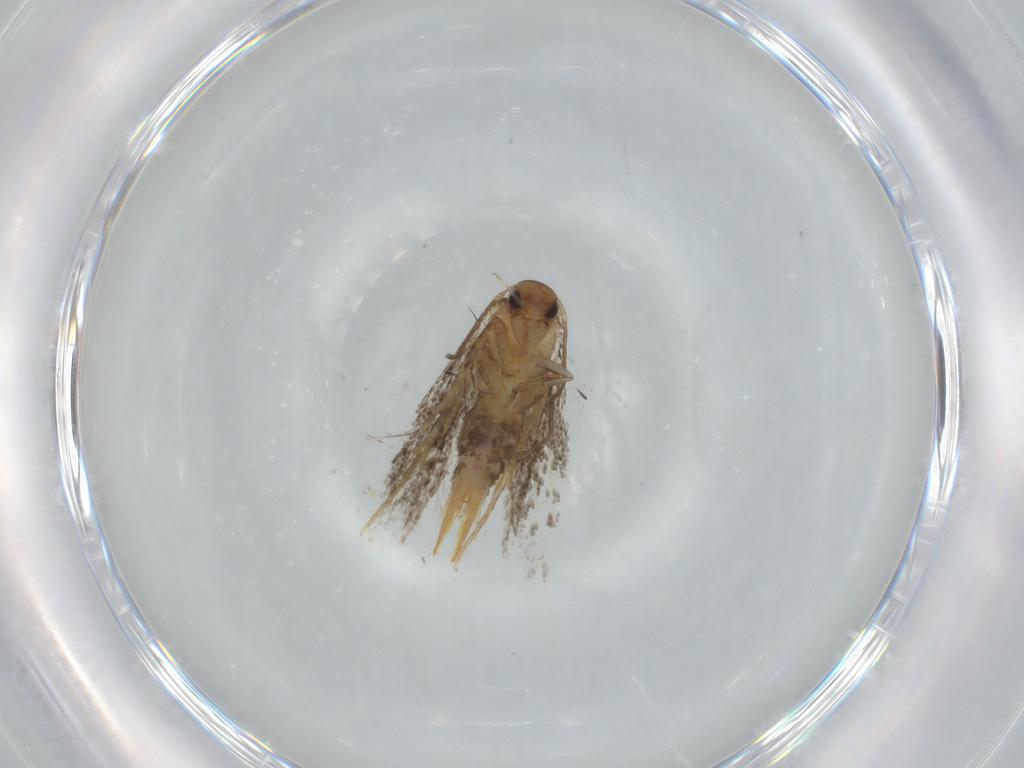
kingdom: Animalia
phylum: Arthropoda
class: Insecta
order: Lepidoptera
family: Elachistidae
